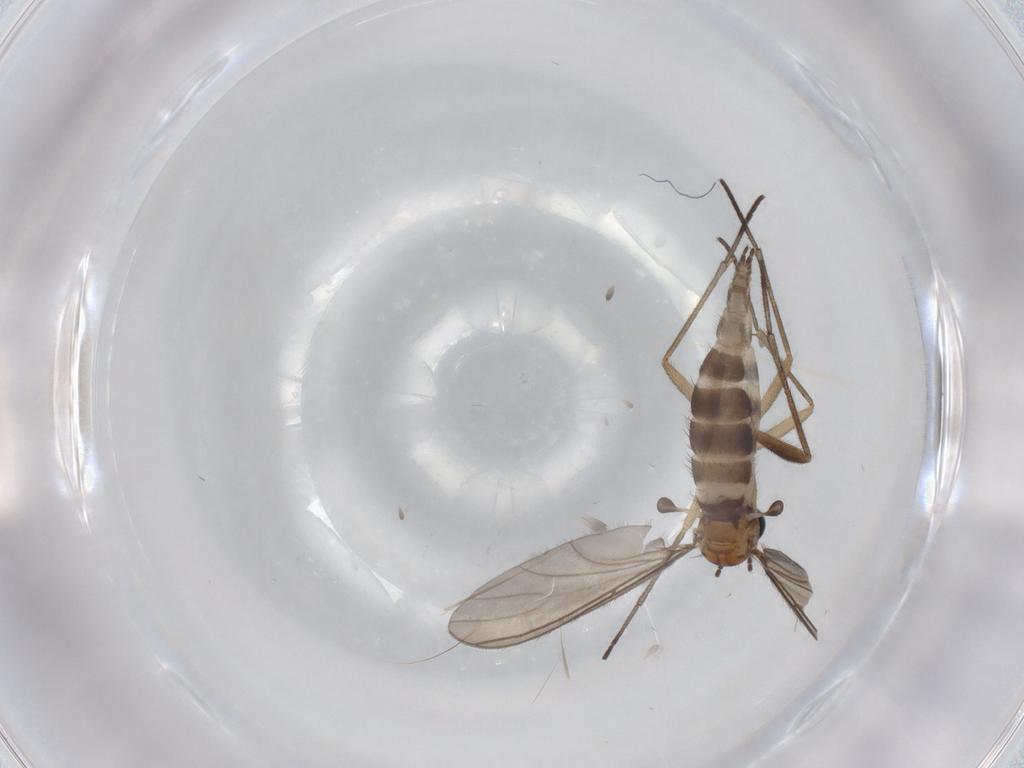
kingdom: Animalia
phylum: Arthropoda
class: Insecta
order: Diptera
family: Sciaridae
